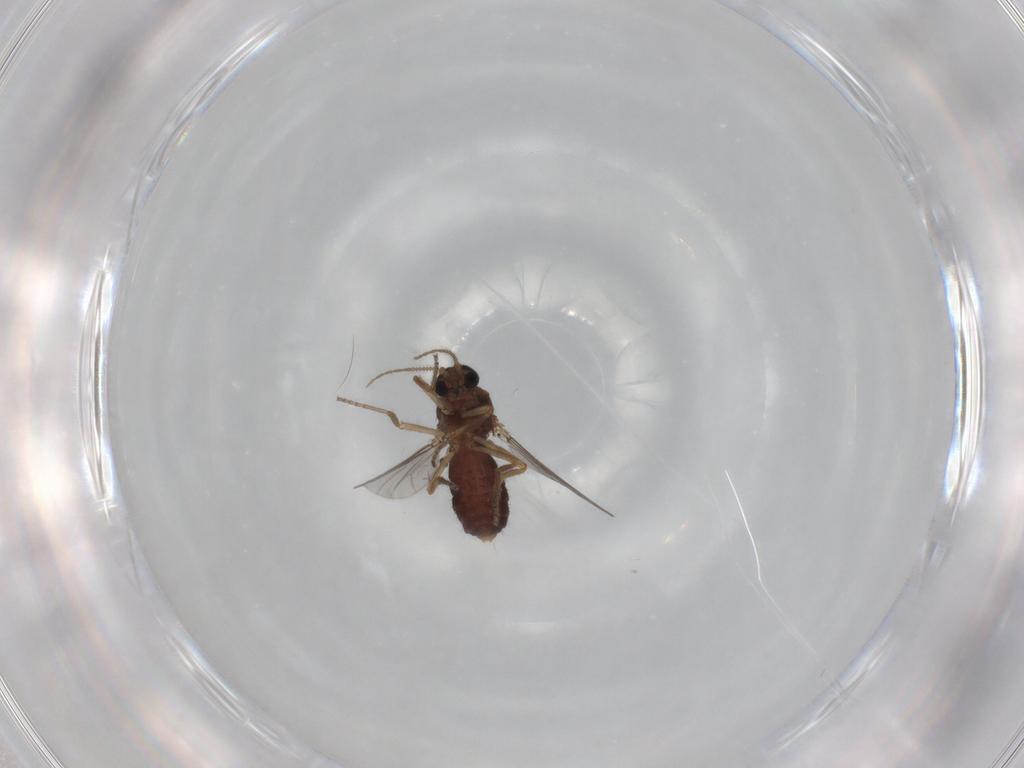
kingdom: Animalia
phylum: Arthropoda
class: Insecta
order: Diptera
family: Ceratopogonidae
